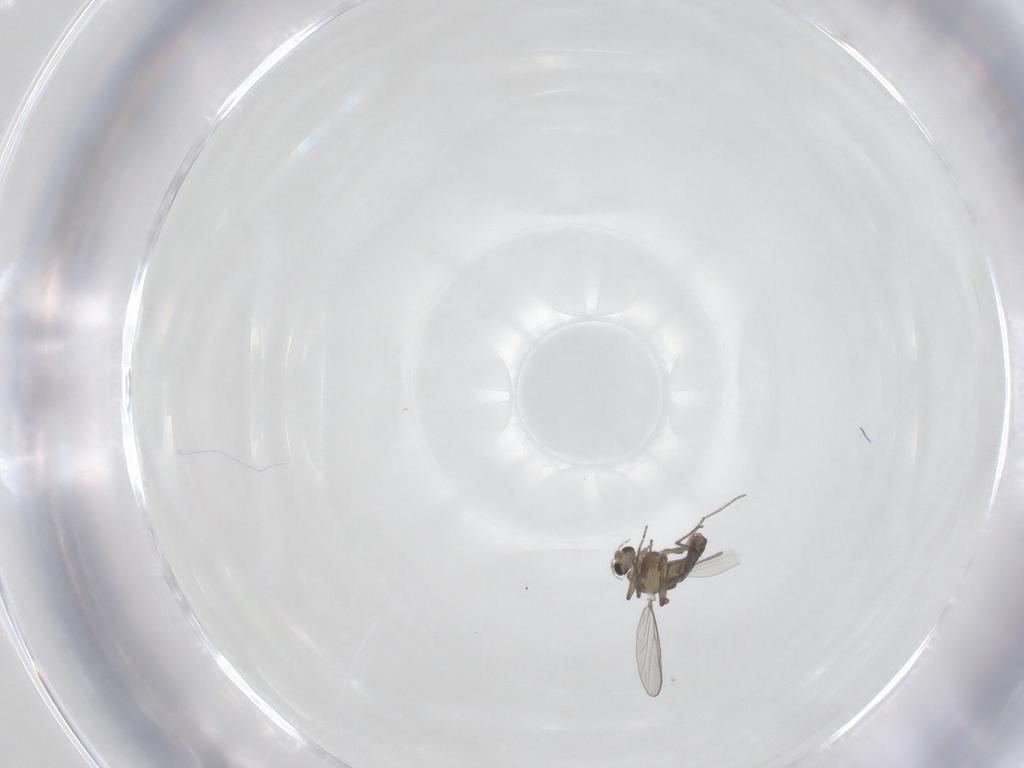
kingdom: Animalia
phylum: Arthropoda
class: Insecta
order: Diptera
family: Chironomidae
